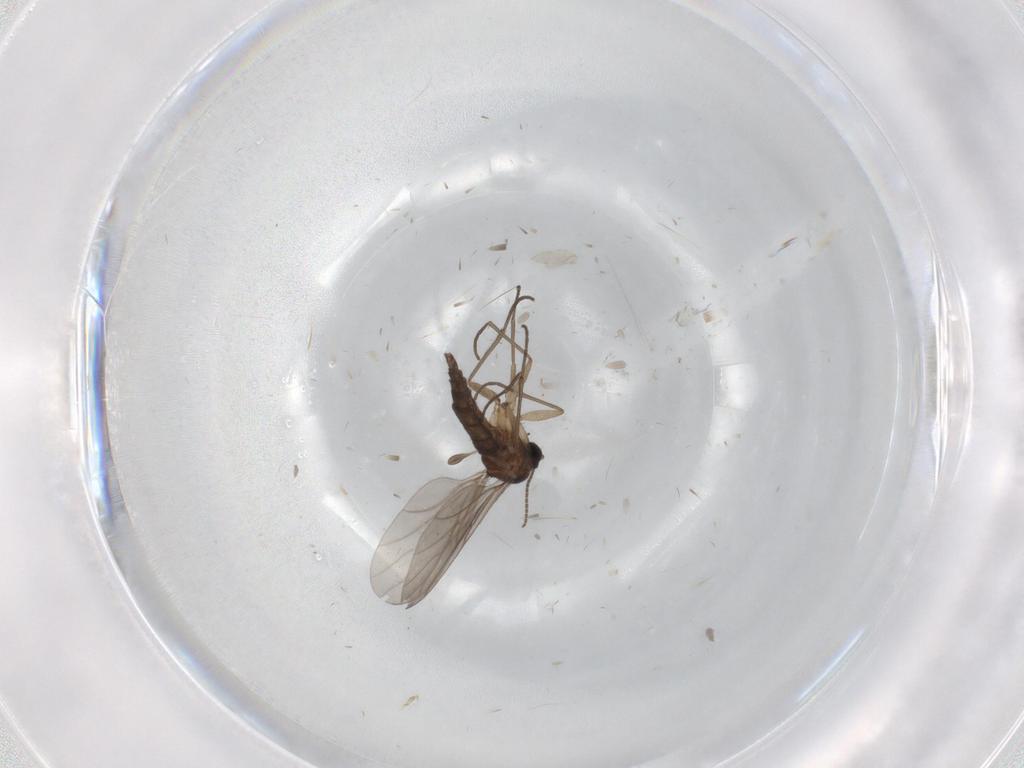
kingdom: Animalia
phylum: Arthropoda
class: Insecta
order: Diptera
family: Sciaridae
